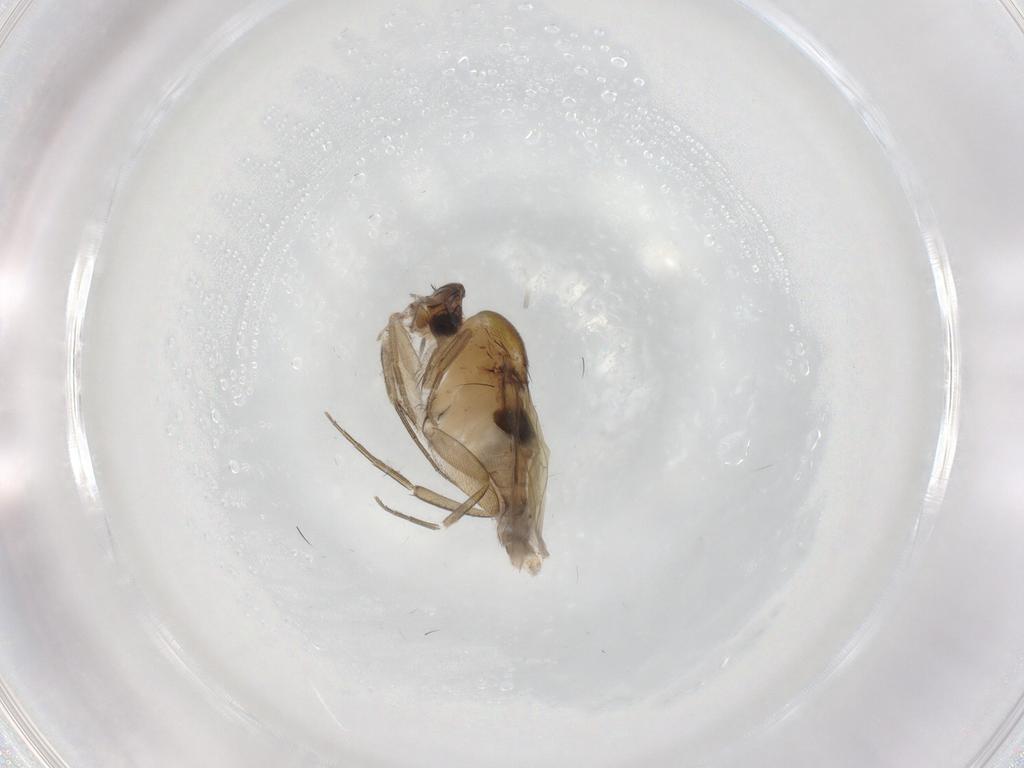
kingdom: Animalia
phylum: Arthropoda
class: Insecta
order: Diptera
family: Phoridae
